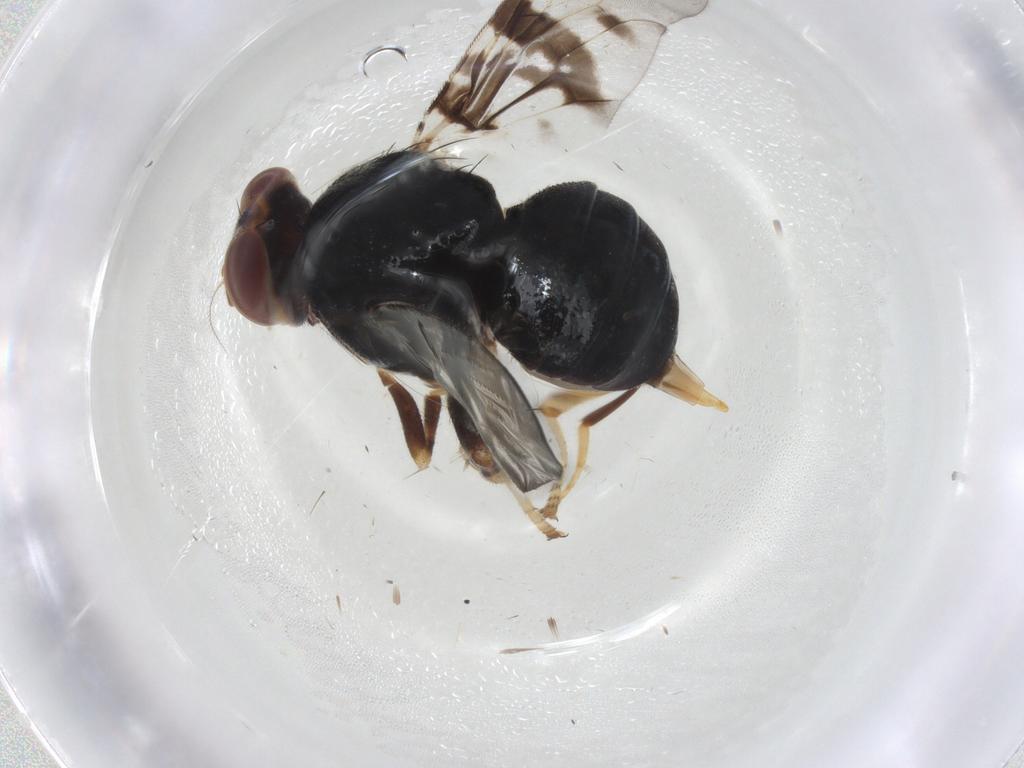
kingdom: Animalia
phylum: Arthropoda
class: Insecta
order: Diptera
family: Platystomatidae
